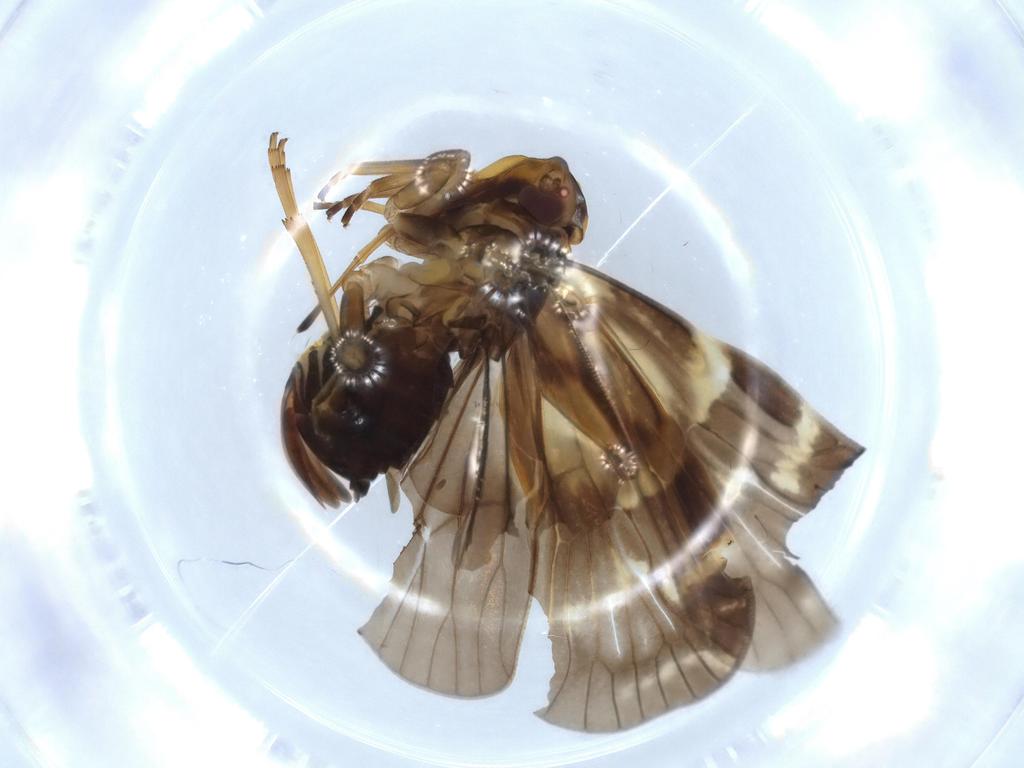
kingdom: Animalia
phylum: Arthropoda
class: Insecta
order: Hemiptera
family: Cixiidae
